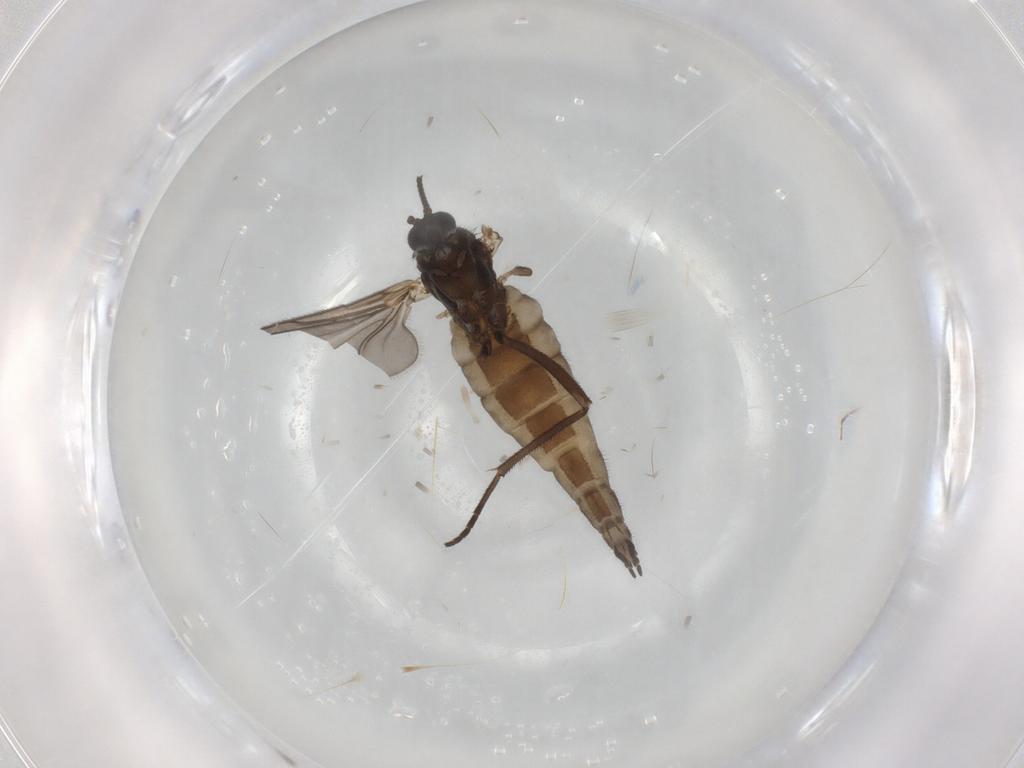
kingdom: Animalia
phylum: Arthropoda
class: Insecta
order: Diptera
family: Sciaridae
